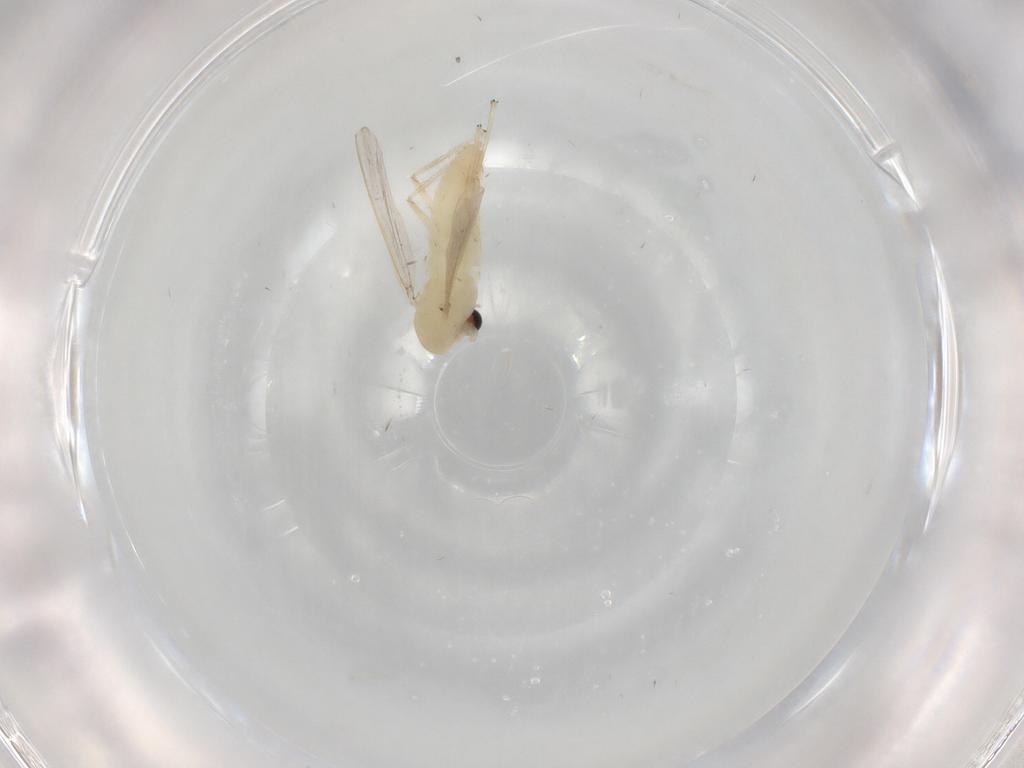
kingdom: Animalia
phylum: Arthropoda
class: Insecta
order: Diptera
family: Chironomidae
